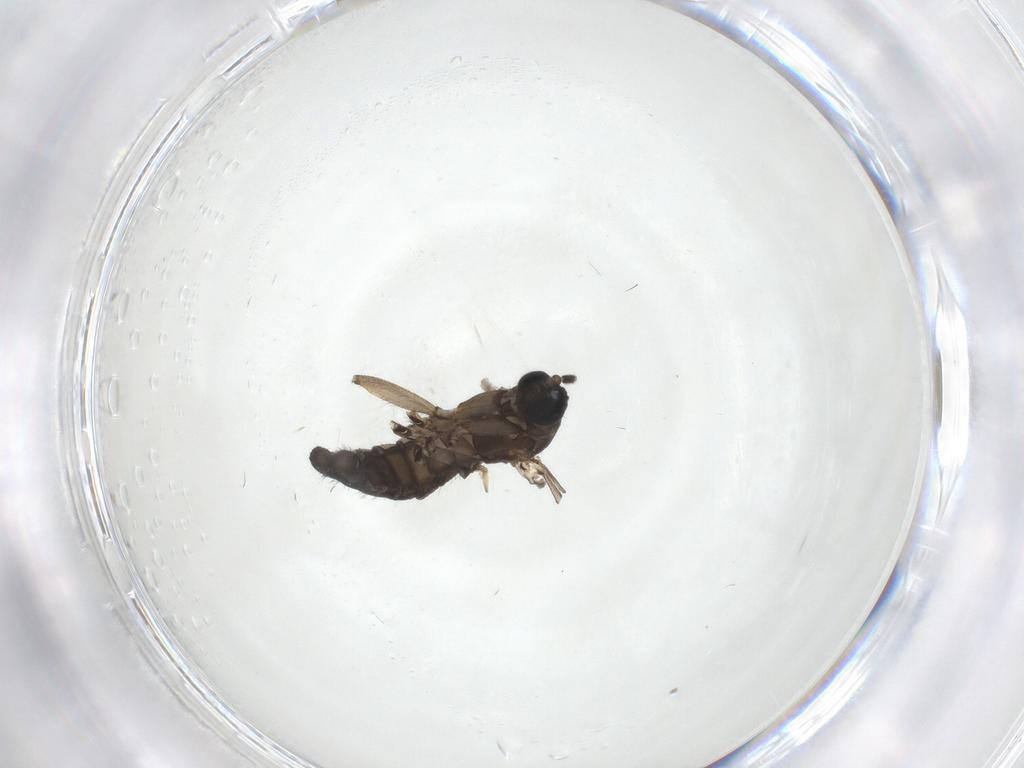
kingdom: Animalia
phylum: Arthropoda
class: Insecta
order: Diptera
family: Sciaridae
